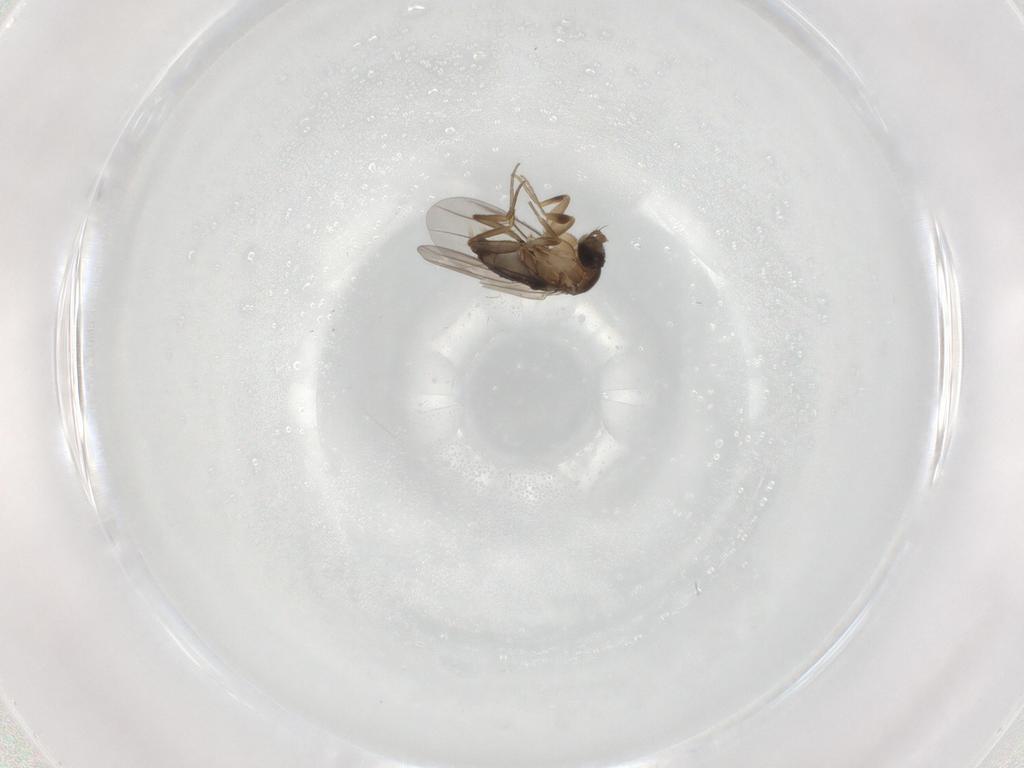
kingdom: Animalia
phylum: Arthropoda
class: Insecta
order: Diptera
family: Phoridae
